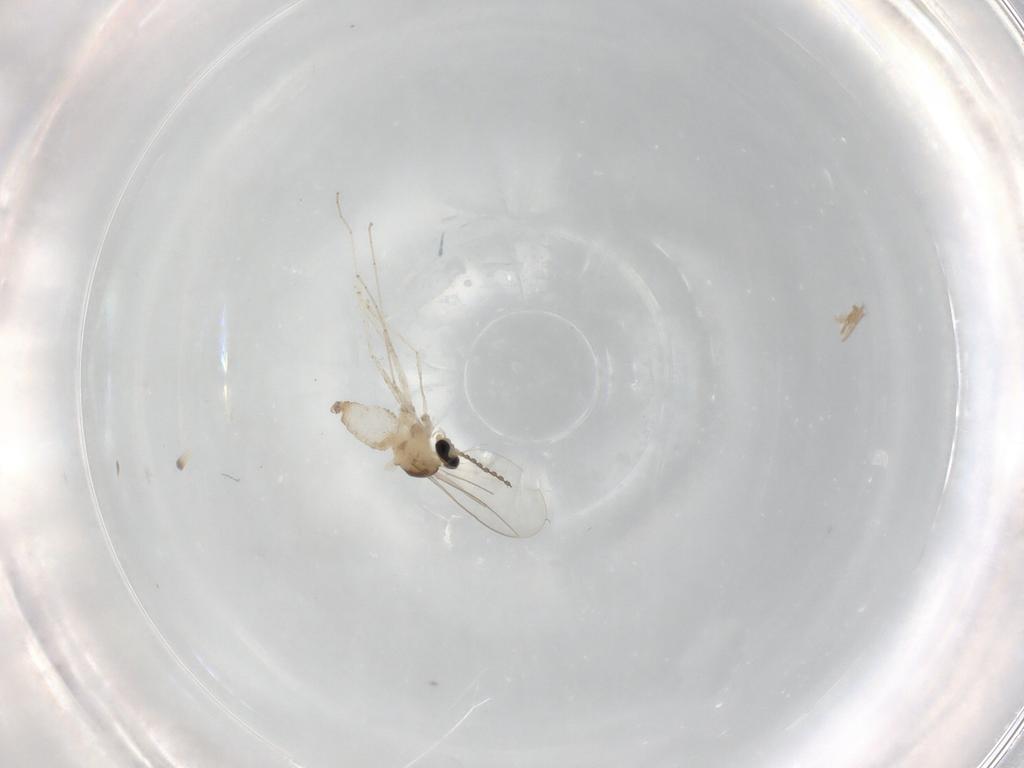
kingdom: Animalia
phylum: Arthropoda
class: Insecta
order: Diptera
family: Cecidomyiidae
